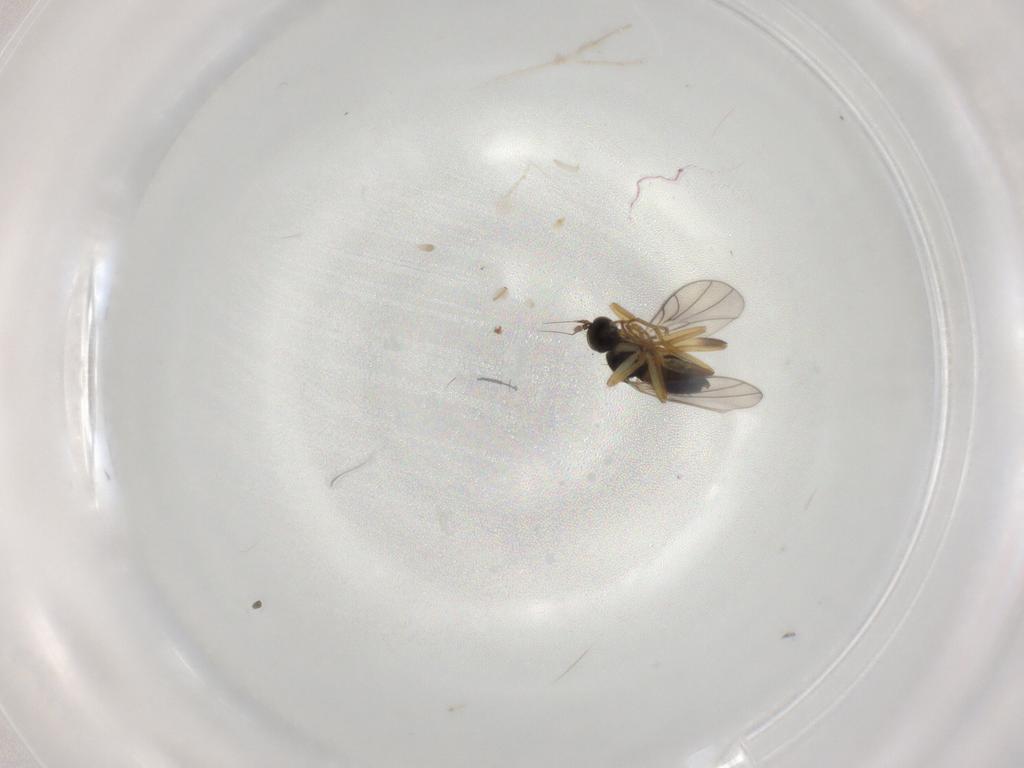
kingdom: Animalia
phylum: Arthropoda
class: Insecta
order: Diptera
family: Hybotidae
